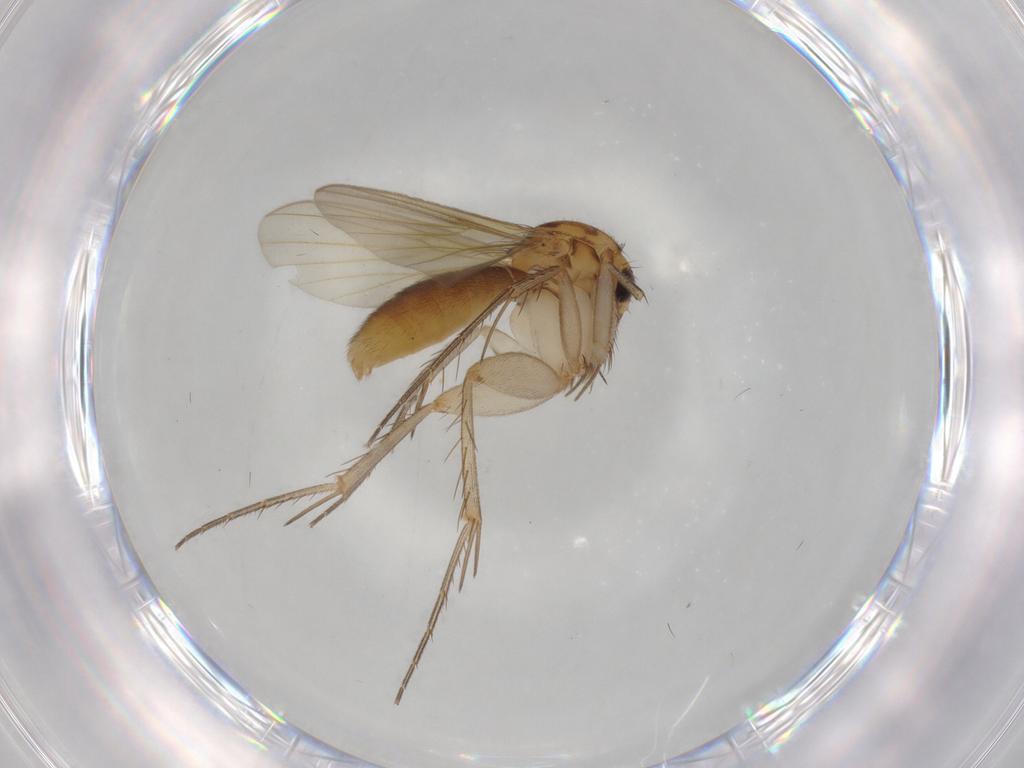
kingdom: Animalia
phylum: Arthropoda
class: Insecta
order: Diptera
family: Mycetophilidae
